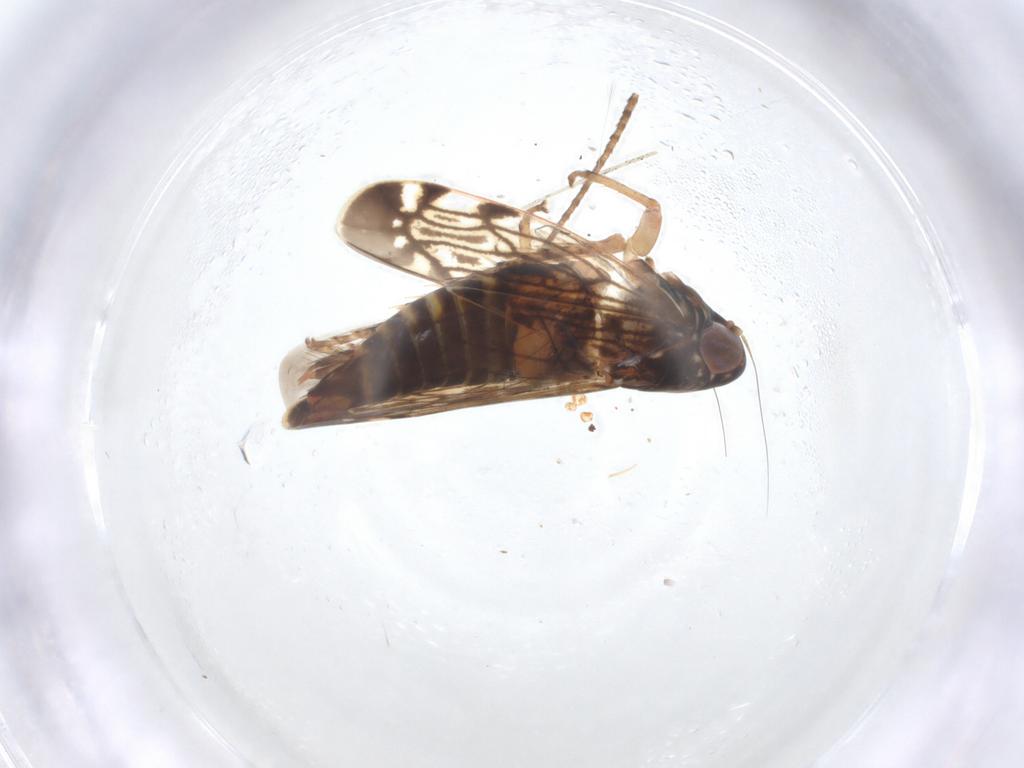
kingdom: Animalia
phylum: Arthropoda
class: Insecta
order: Hemiptera
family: Cicadellidae
